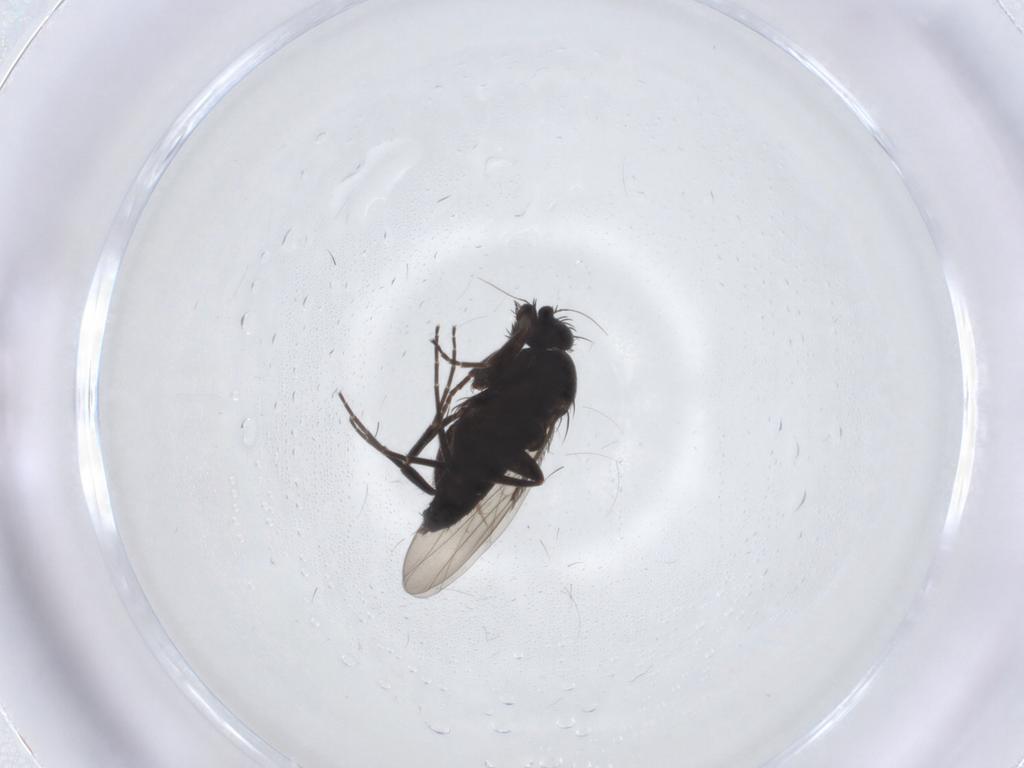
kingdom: Animalia
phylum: Arthropoda
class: Insecta
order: Diptera
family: Phoridae
